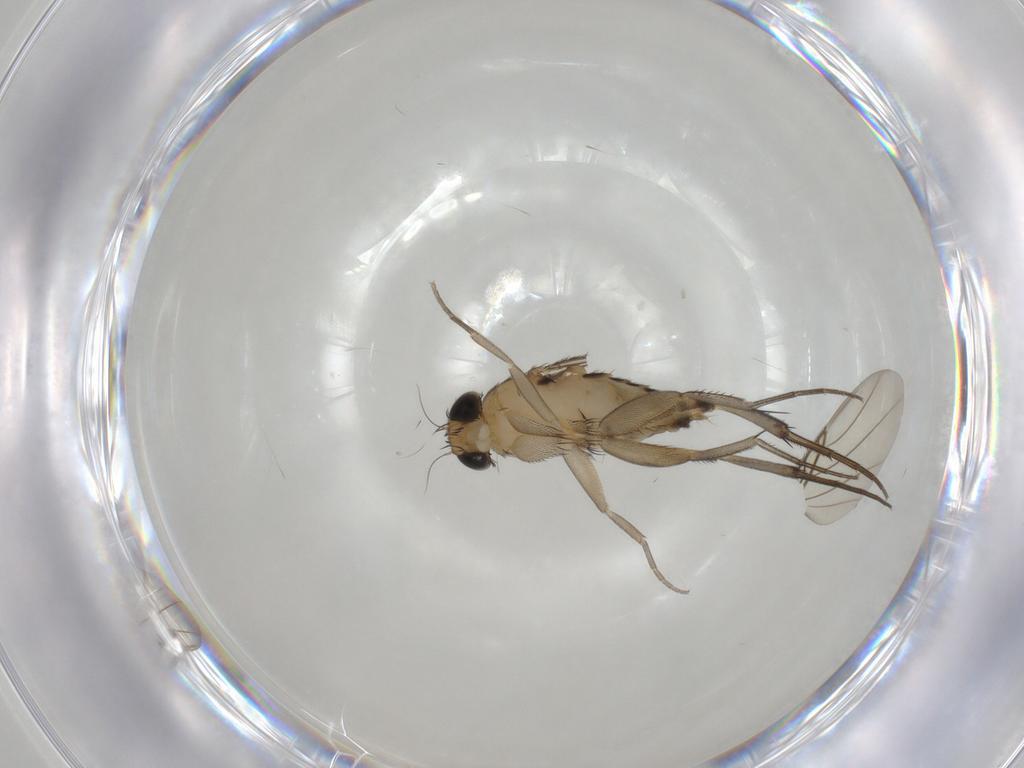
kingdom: Animalia
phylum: Arthropoda
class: Insecta
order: Diptera
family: Phoridae
